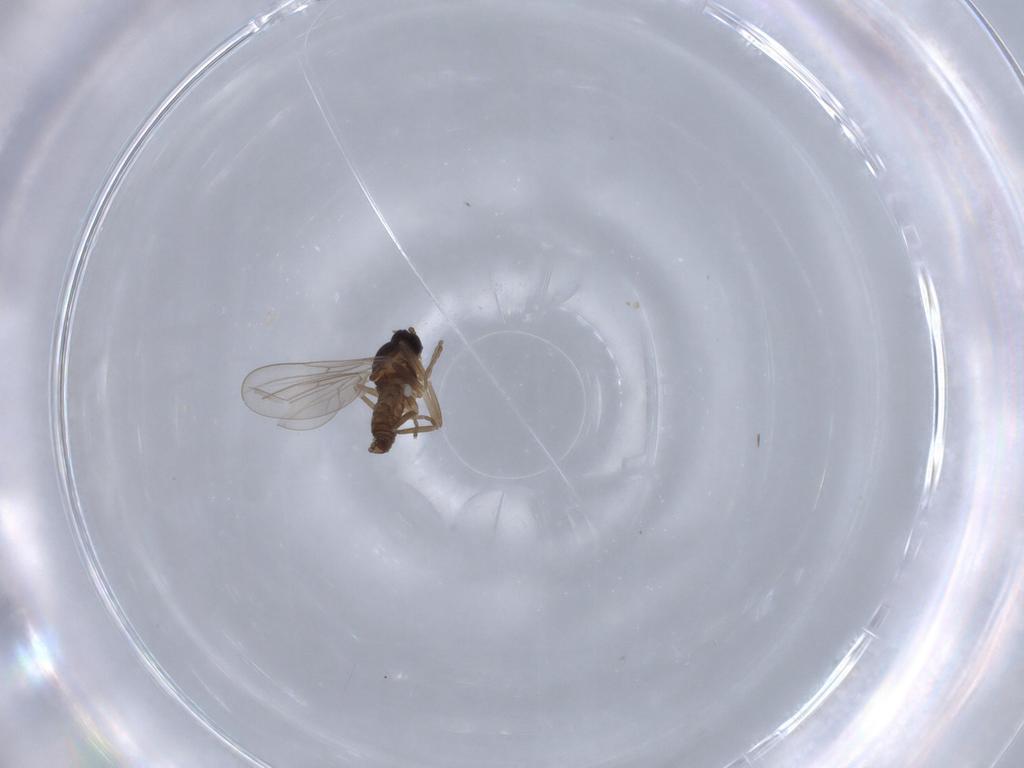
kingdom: Animalia
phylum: Arthropoda
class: Insecta
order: Diptera
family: Cecidomyiidae
